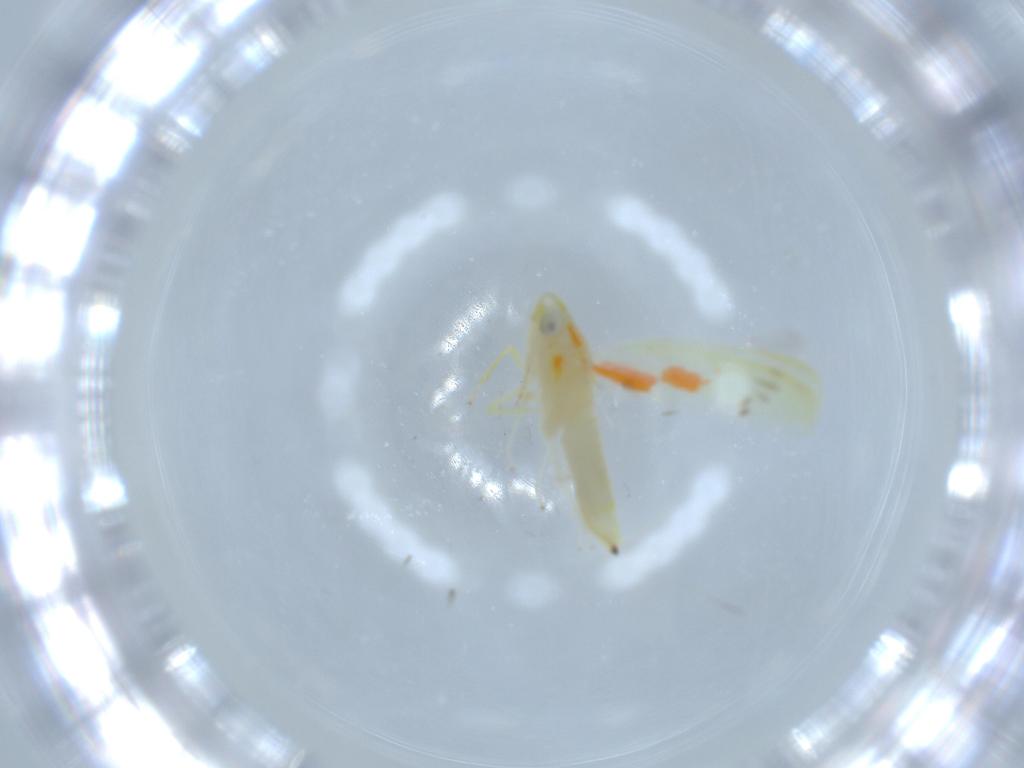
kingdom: Animalia
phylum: Arthropoda
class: Insecta
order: Hemiptera
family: Cicadellidae
